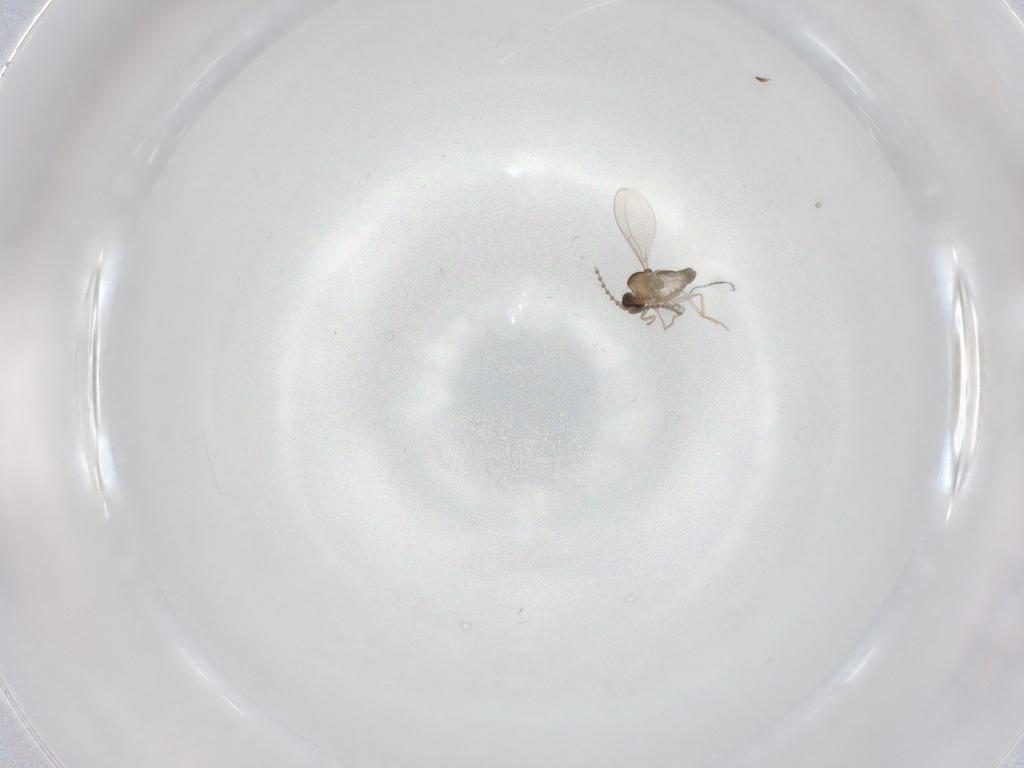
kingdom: Animalia
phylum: Arthropoda
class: Insecta
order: Diptera
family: Cecidomyiidae
